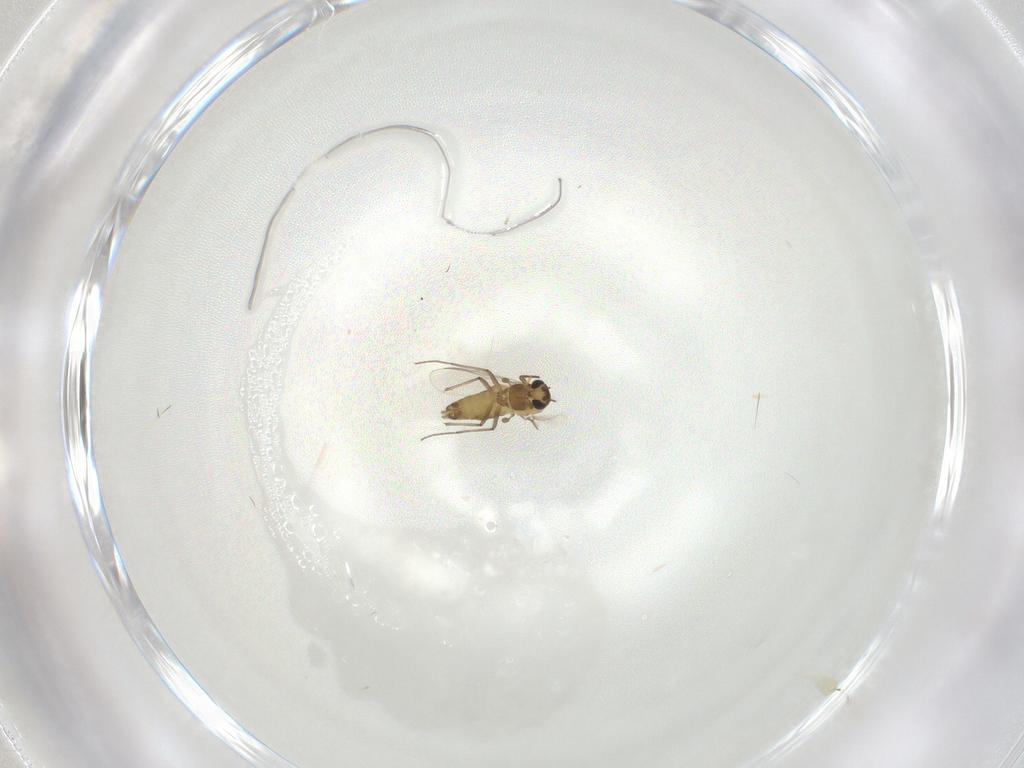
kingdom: Animalia
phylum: Arthropoda
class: Insecta
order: Diptera
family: Chironomidae
